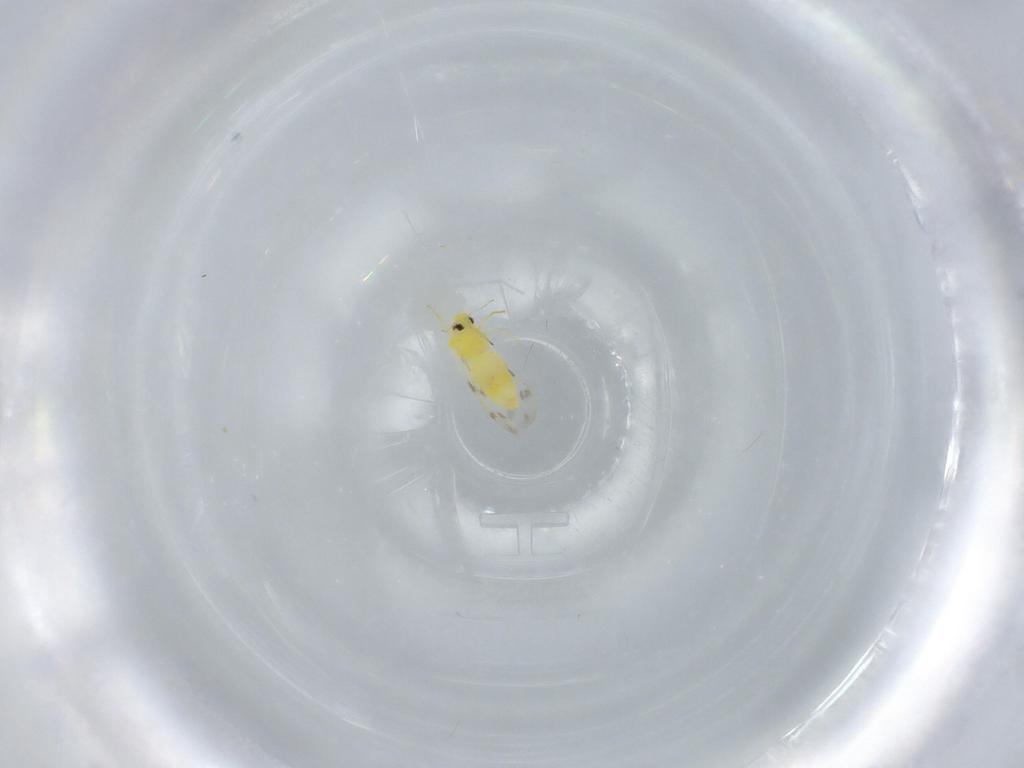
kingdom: Animalia
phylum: Arthropoda
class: Insecta
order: Hemiptera
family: Aleyrodidae
